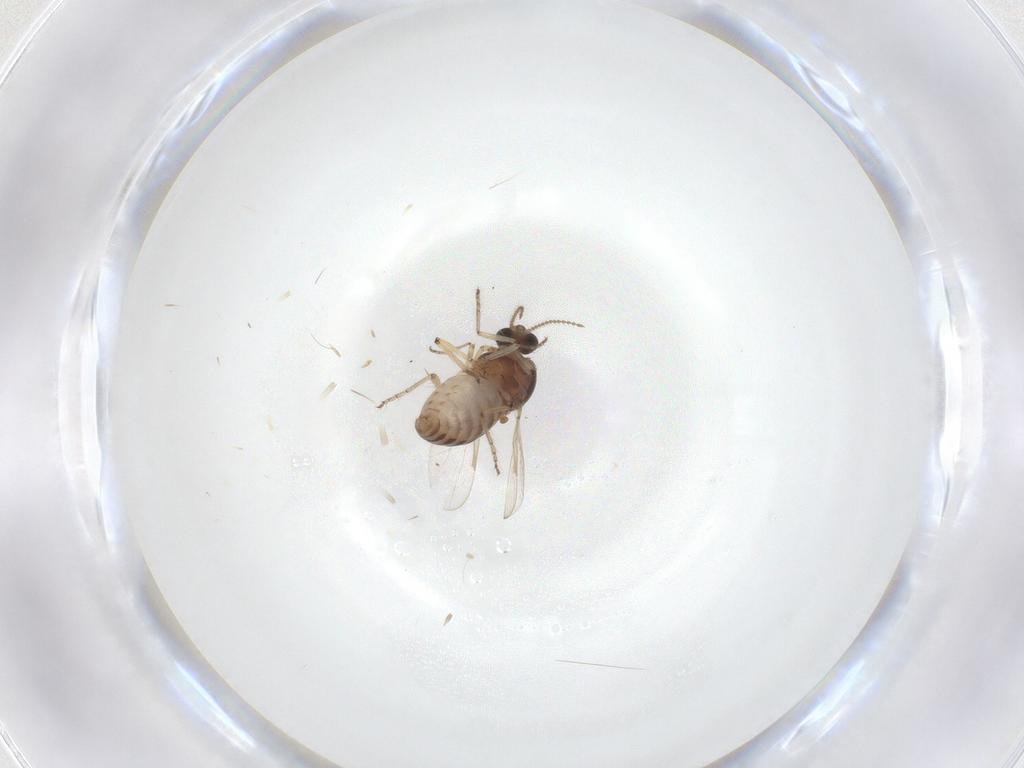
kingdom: Animalia
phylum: Arthropoda
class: Insecta
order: Diptera
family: Ceratopogonidae
